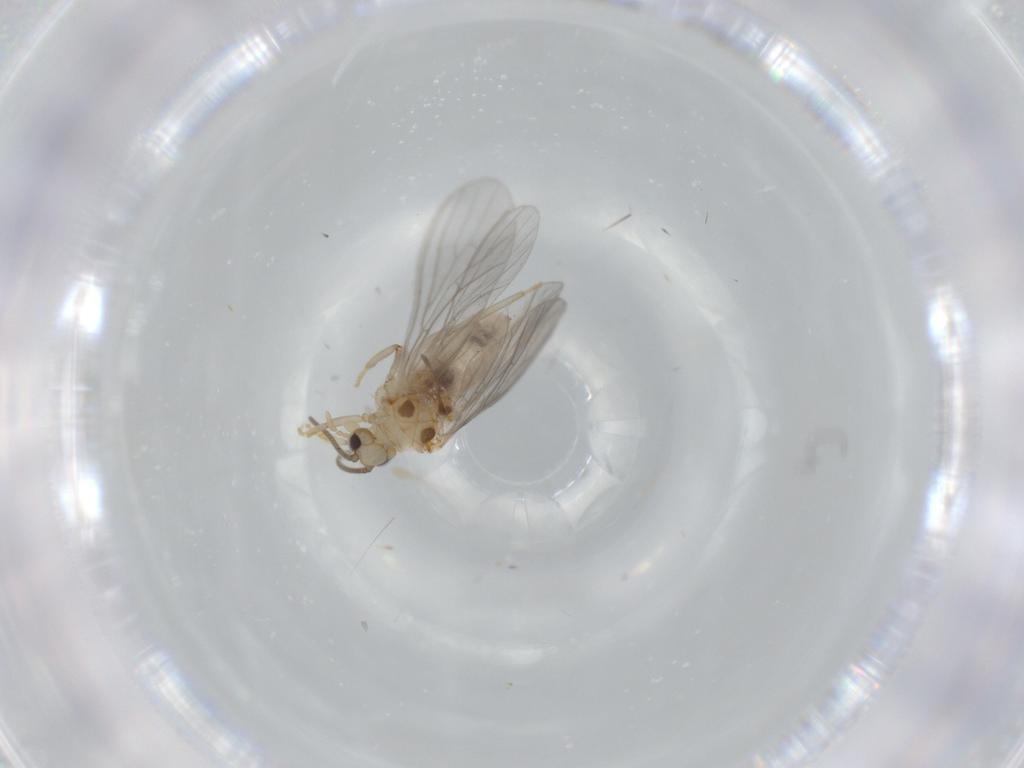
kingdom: Animalia
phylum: Arthropoda
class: Insecta
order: Neuroptera
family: Coniopterygidae
